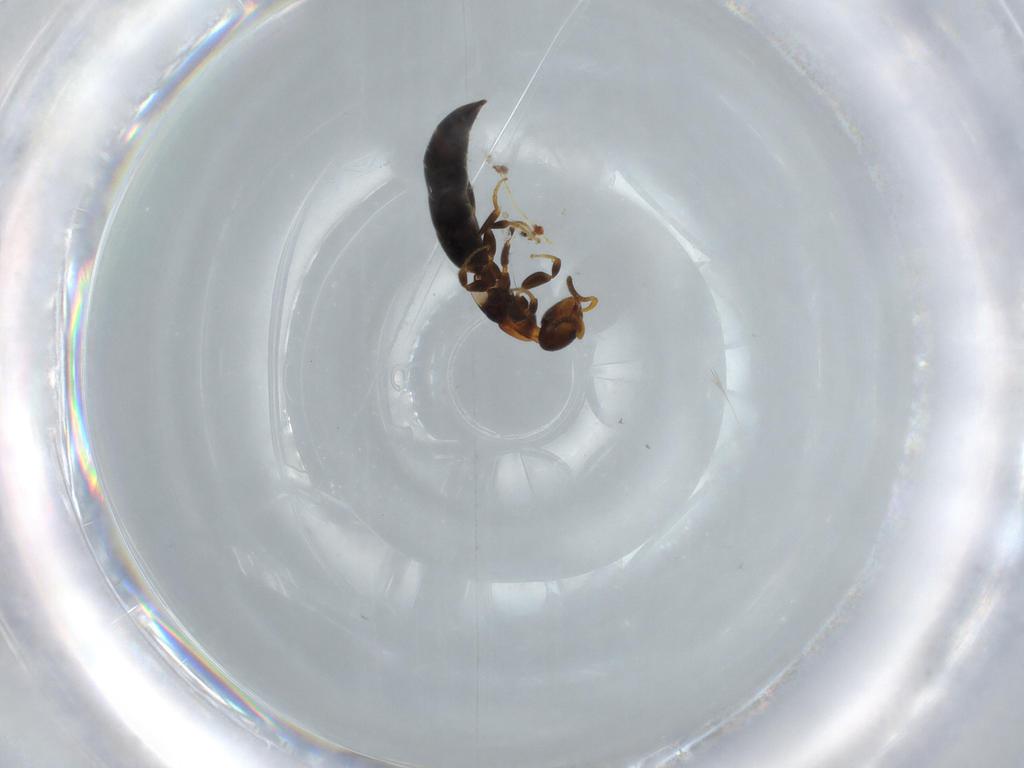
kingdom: Animalia
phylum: Arthropoda
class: Insecta
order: Hymenoptera
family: Bethylidae
